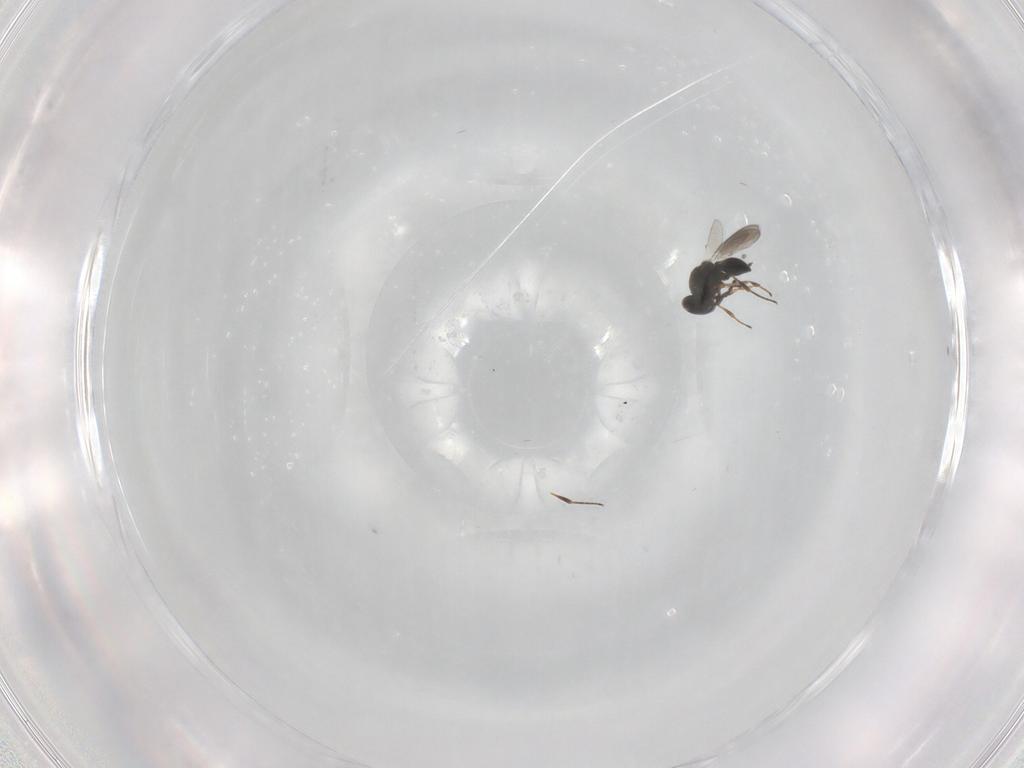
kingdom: Animalia
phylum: Arthropoda
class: Insecta
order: Hymenoptera
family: Platygastridae
